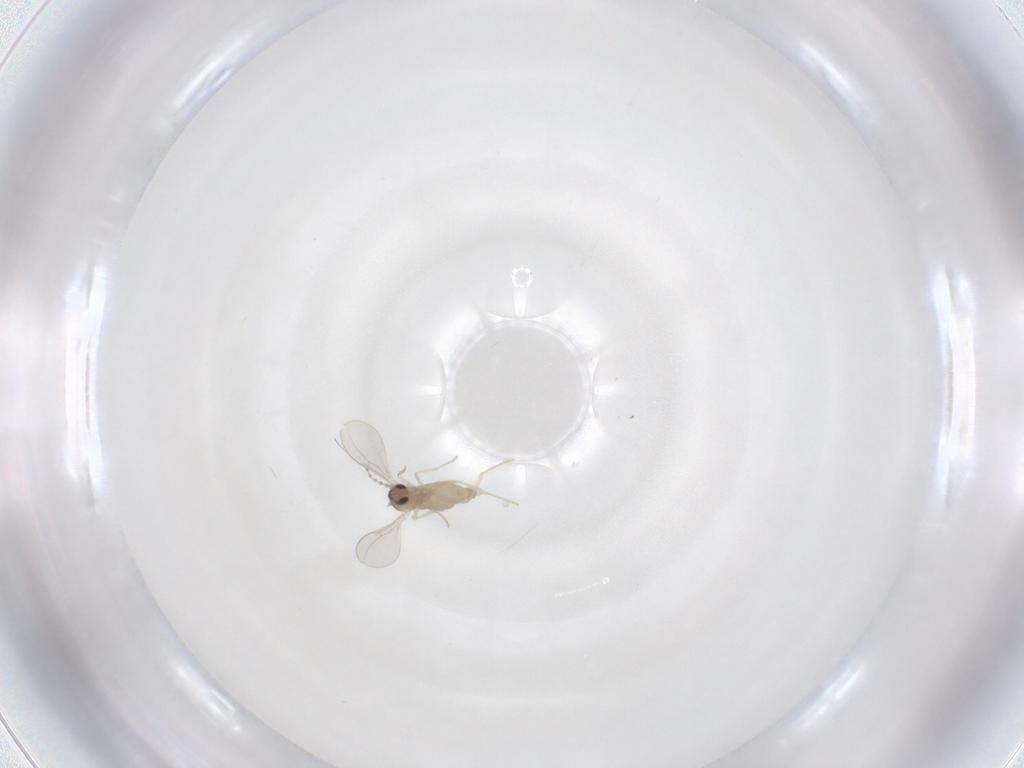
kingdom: Animalia
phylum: Arthropoda
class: Insecta
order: Diptera
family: Cecidomyiidae
